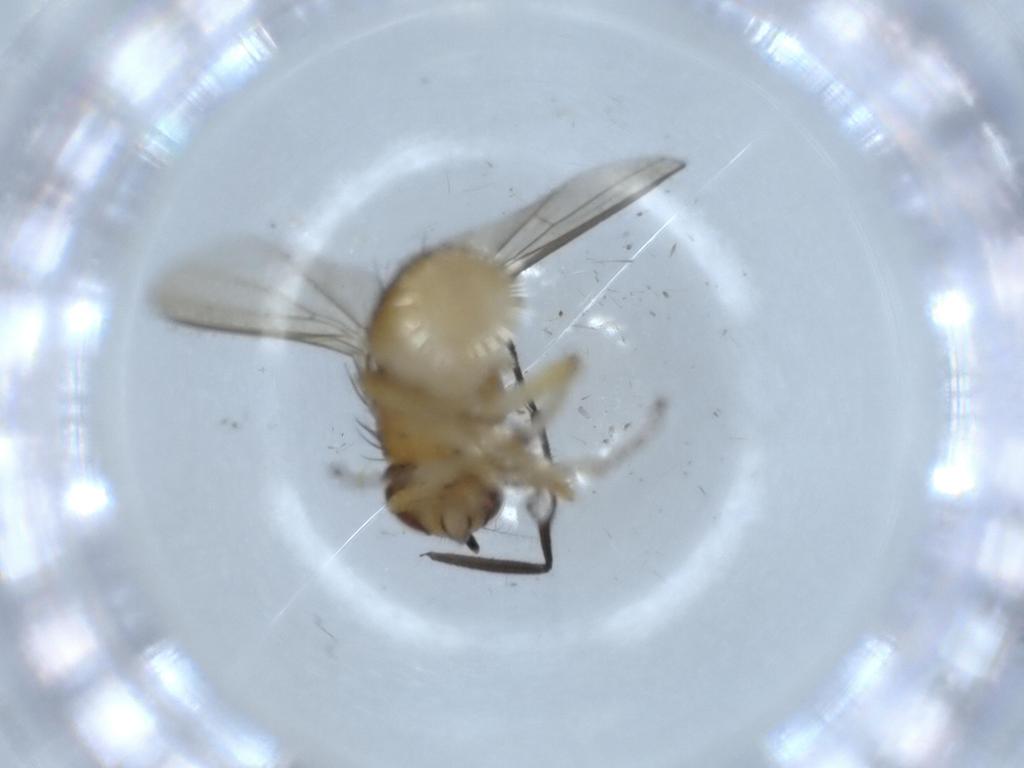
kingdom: Animalia
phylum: Arthropoda
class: Insecta
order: Diptera
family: Lauxaniidae
